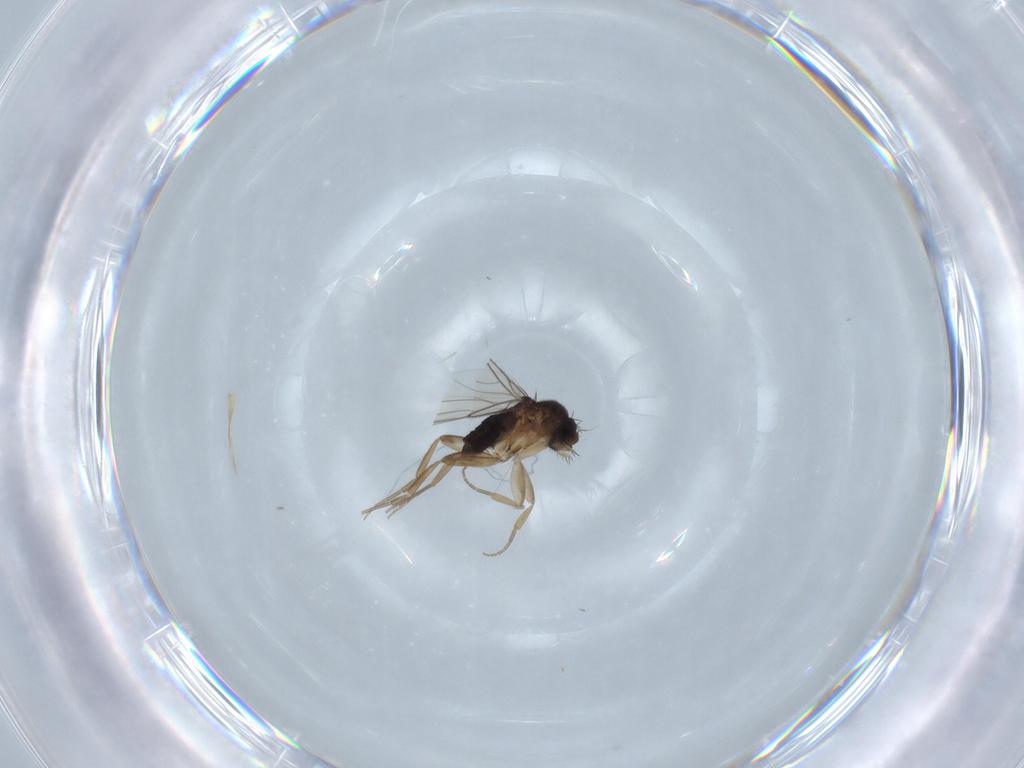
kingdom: Animalia
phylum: Arthropoda
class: Insecta
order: Diptera
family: Phoridae
